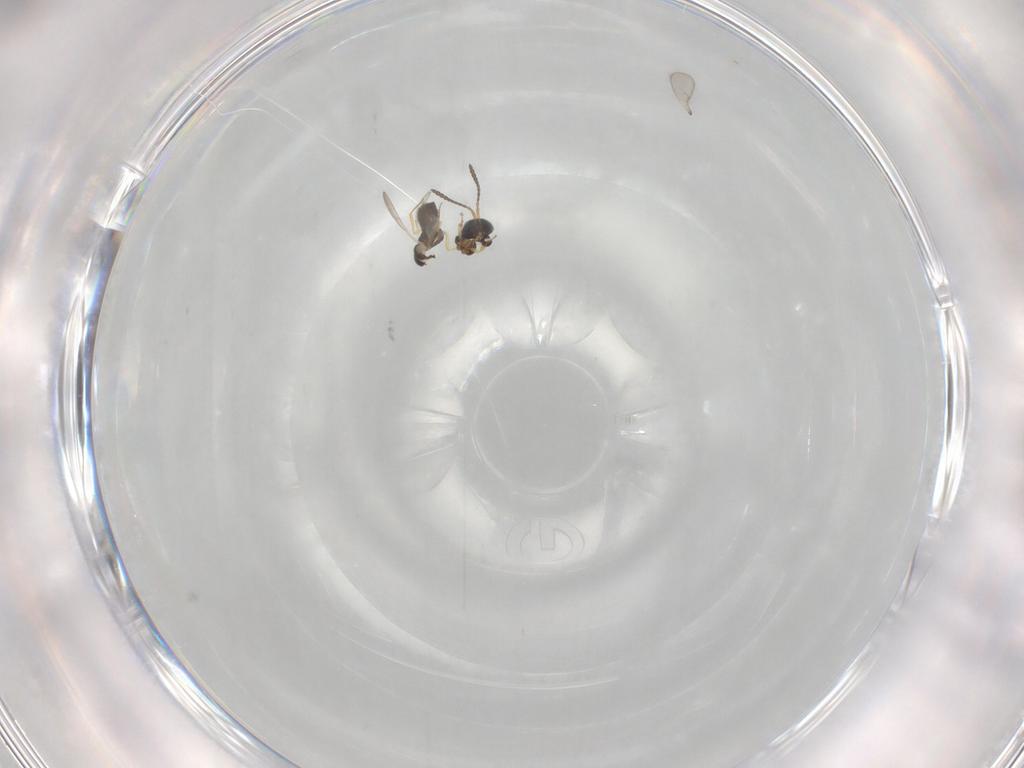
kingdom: Animalia
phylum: Arthropoda
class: Insecta
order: Hymenoptera
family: Scelionidae
